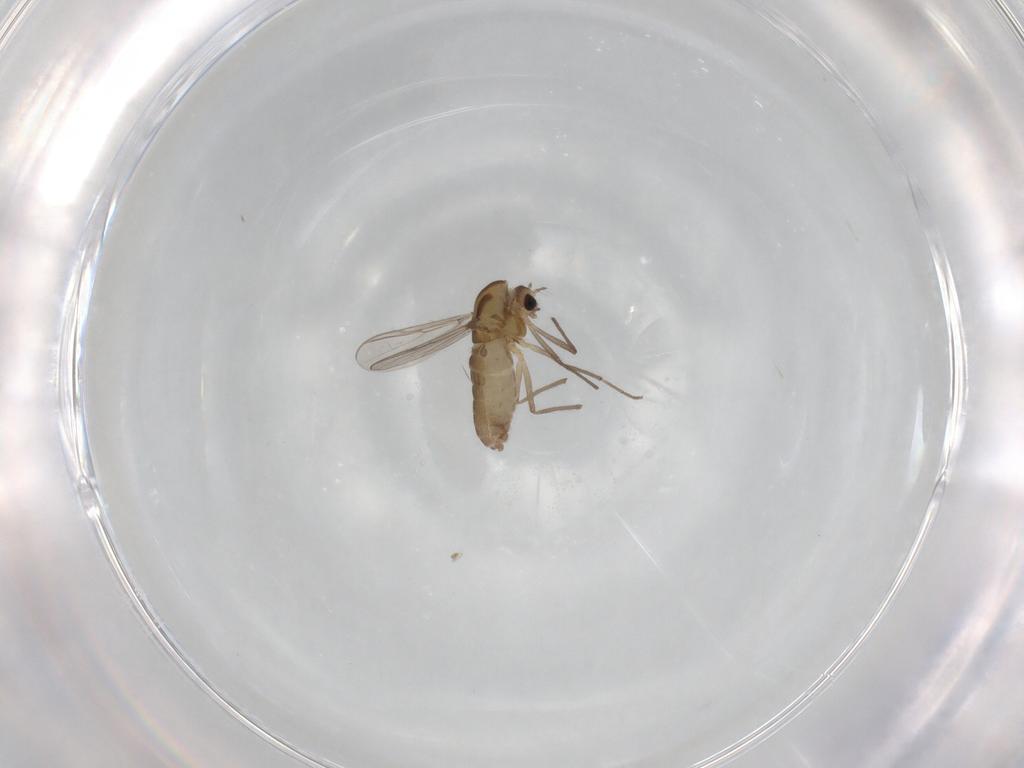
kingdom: Animalia
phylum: Arthropoda
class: Insecta
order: Diptera
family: Chironomidae
